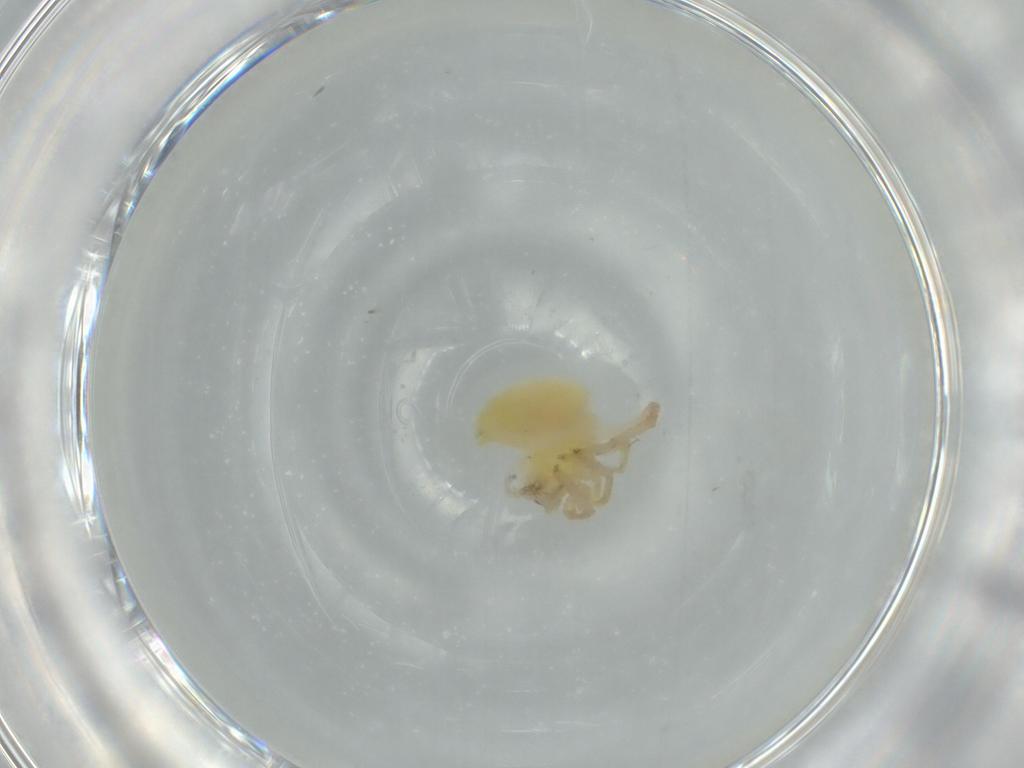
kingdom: Animalia
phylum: Arthropoda
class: Arachnida
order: Araneae
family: Anyphaenidae
